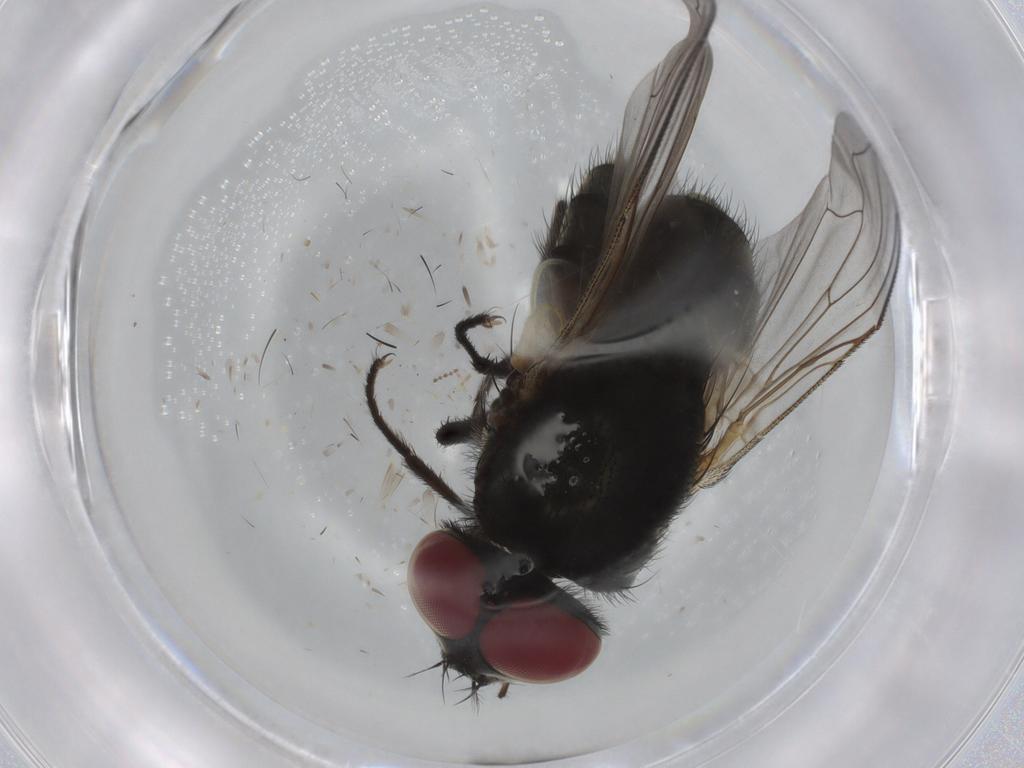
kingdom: Animalia
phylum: Arthropoda
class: Insecta
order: Diptera
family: Muscidae
